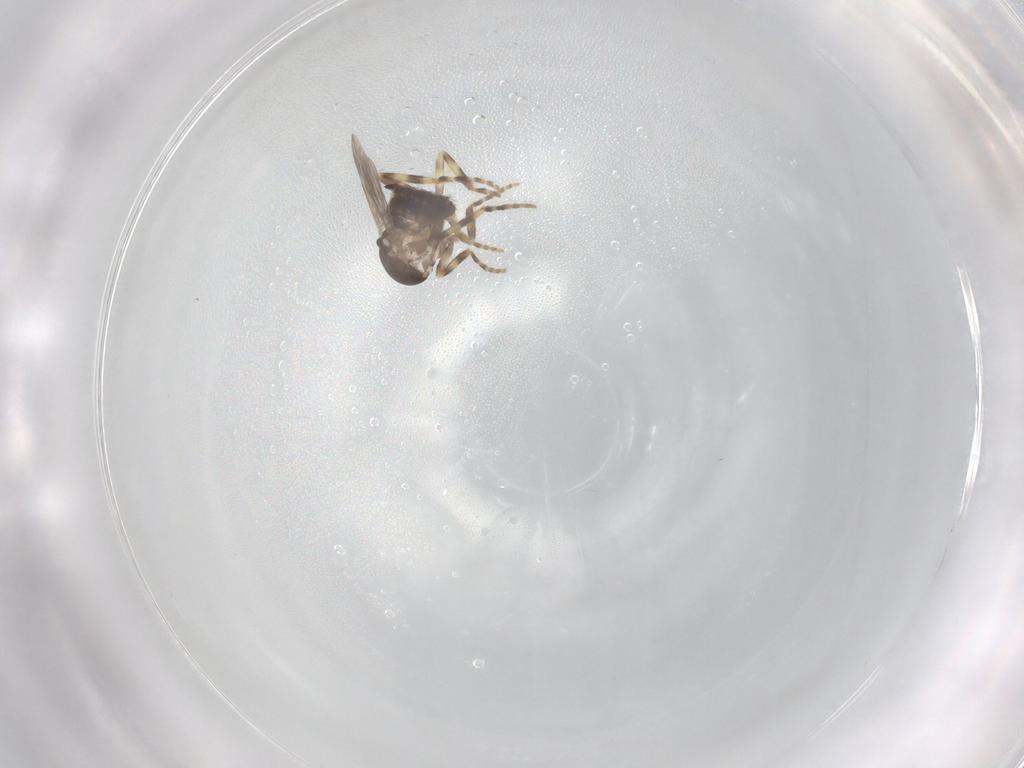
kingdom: Animalia
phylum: Arthropoda
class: Insecta
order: Diptera
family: Ceratopogonidae
